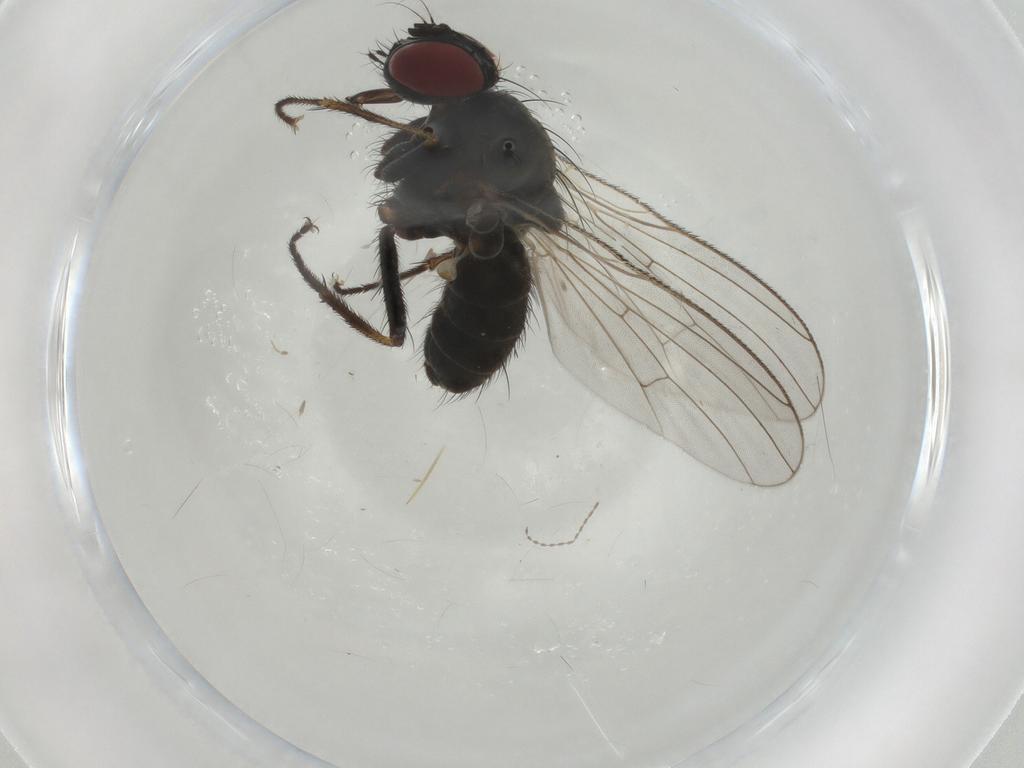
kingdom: Animalia
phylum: Arthropoda
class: Insecta
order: Diptera
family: Muscidae
